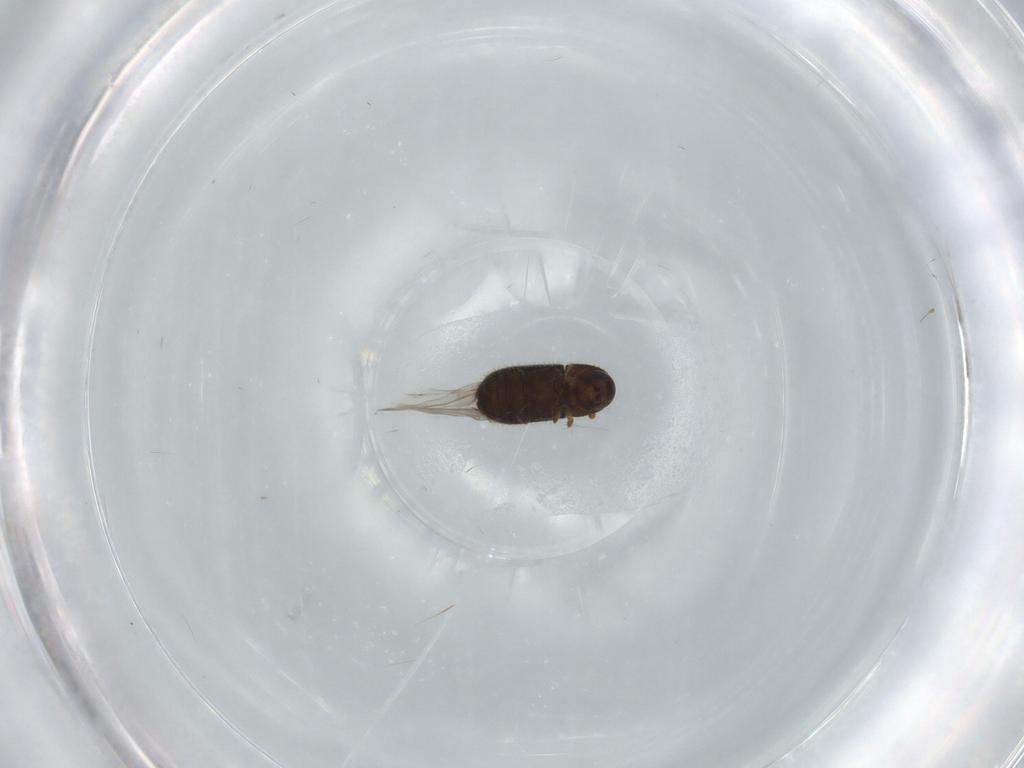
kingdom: Animalia
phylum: Arthropoda
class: Insecta
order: Coleoptera
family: Curculionidae
